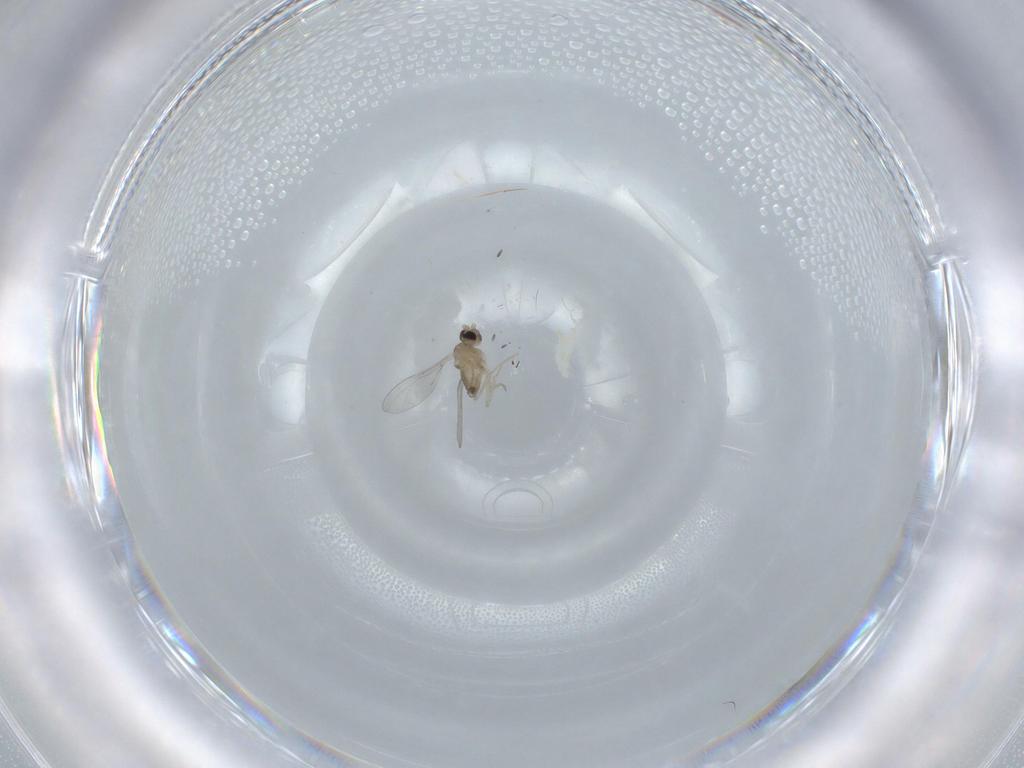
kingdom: Animalia
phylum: Arthropoda
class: Insecta
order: Diptera
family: Cecidomyiidae
